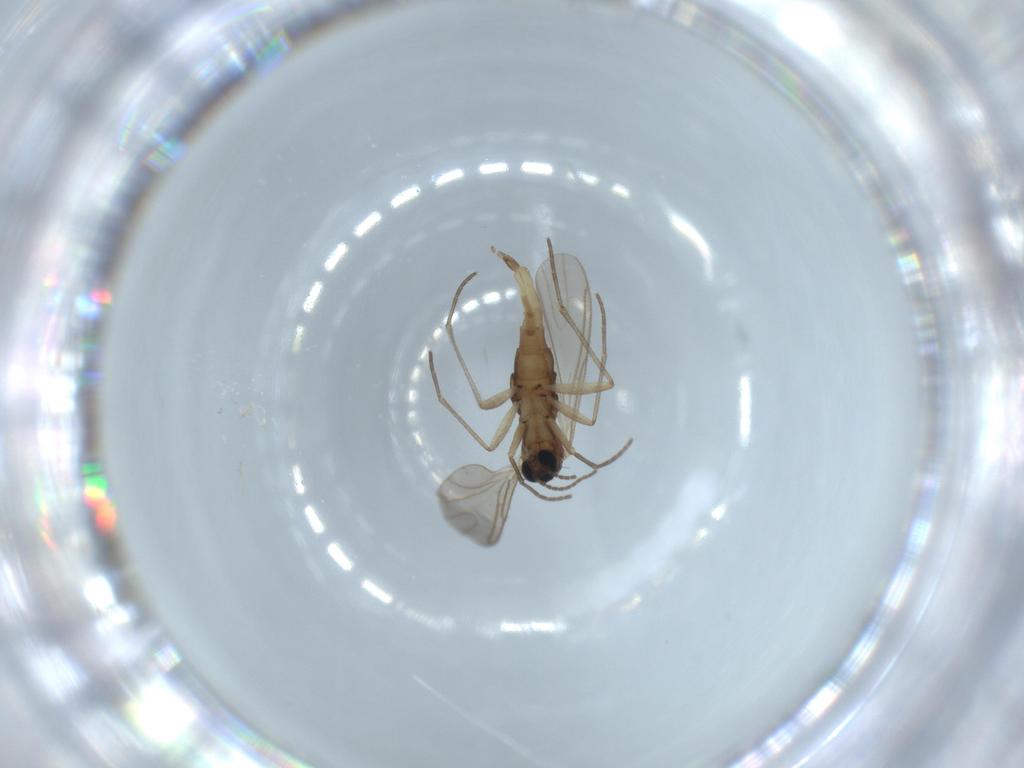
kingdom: Animalia
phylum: Arthropoda
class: Insecta
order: Diptera
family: Sciaridae
